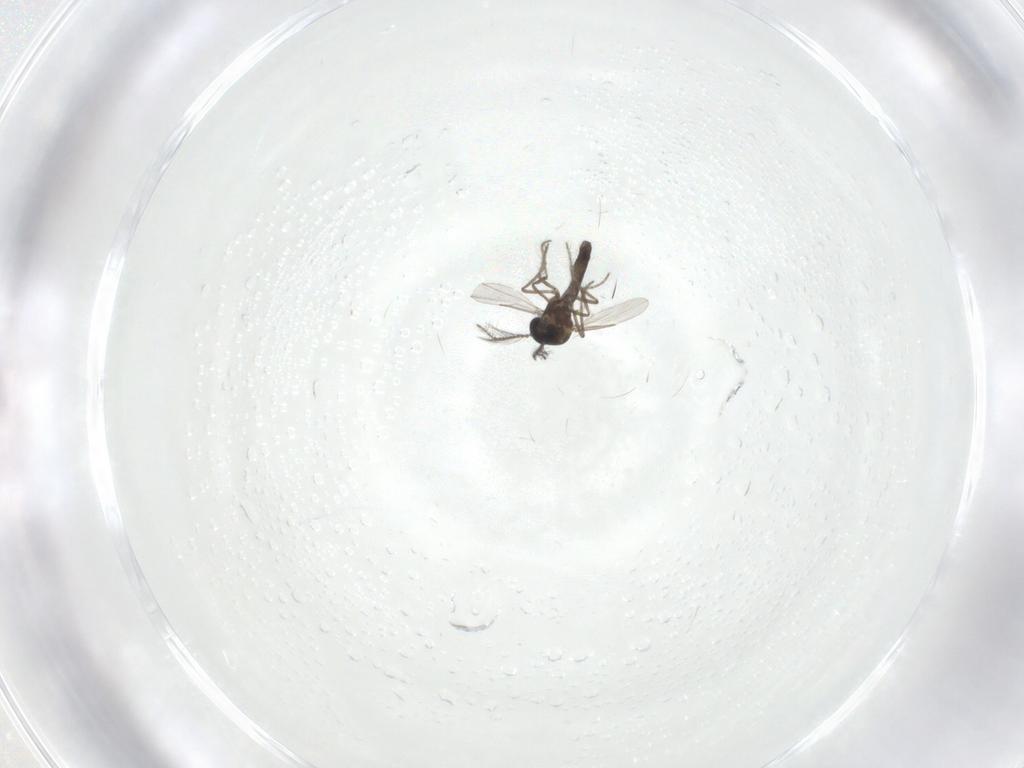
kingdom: Animalia
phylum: Arthropoda
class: Insecta
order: Diptera
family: Ceratopogonidae
